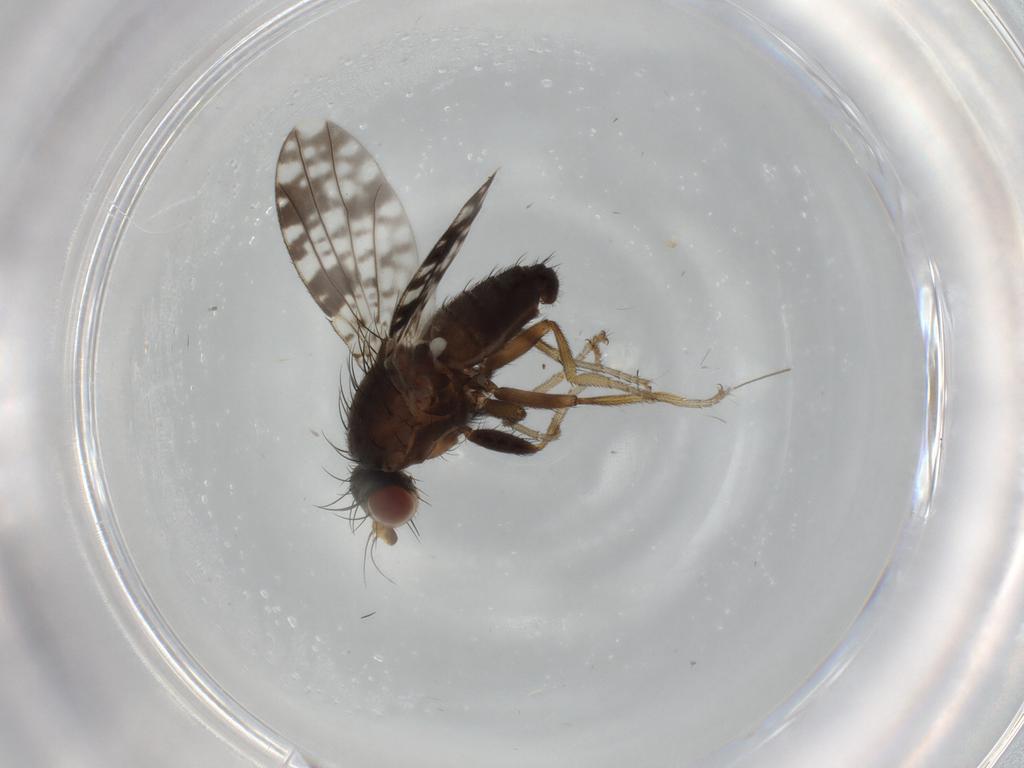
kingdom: Animalia
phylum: Arthropoda
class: Insecta
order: Diptera
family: Tephritidae
